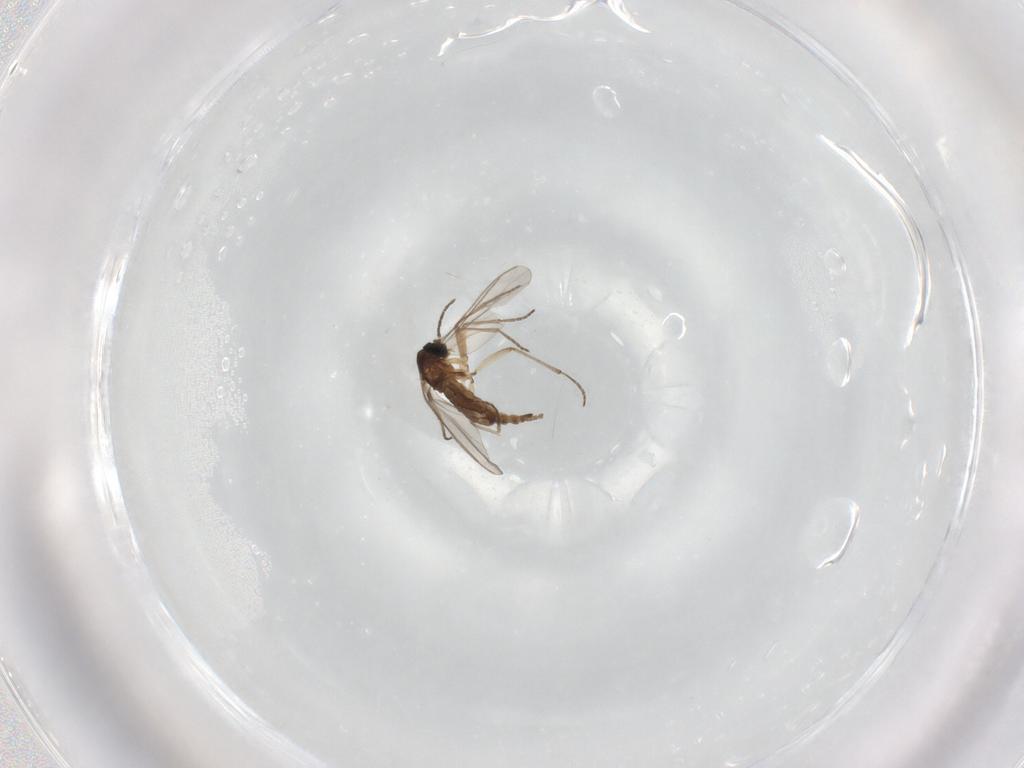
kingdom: Animalia
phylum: Arthropoda
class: Insecta
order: Diptera
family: Sciaridae
